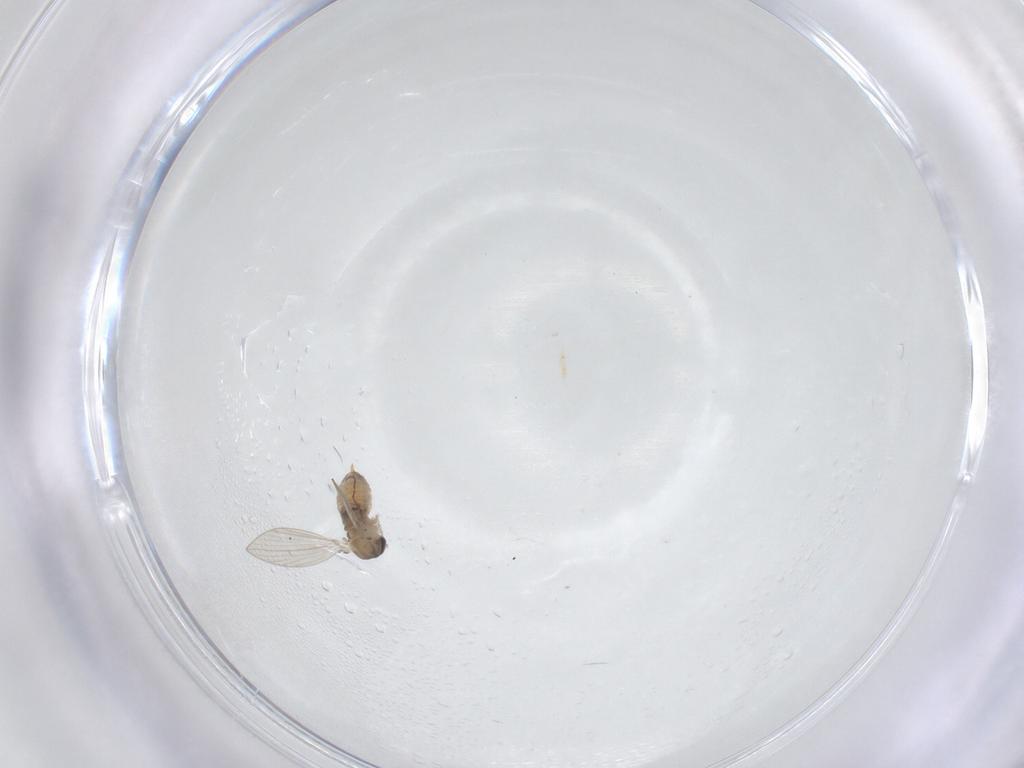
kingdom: Animalia
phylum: Arthropoda
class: Insecta
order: Diptera
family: Psychodidae
